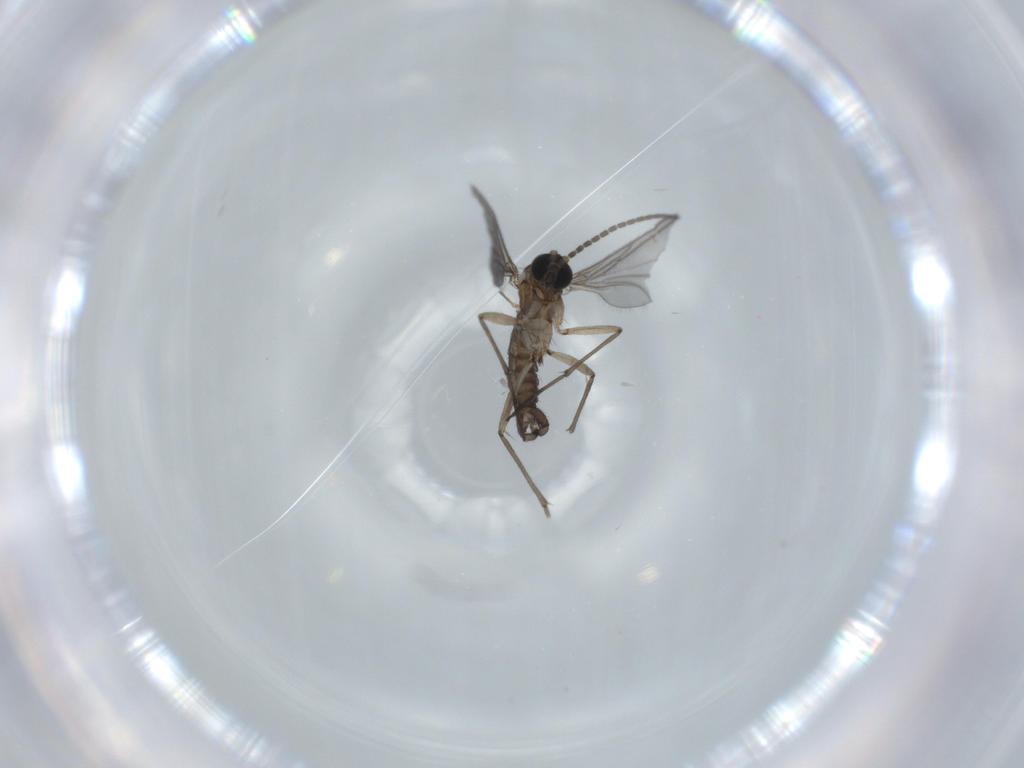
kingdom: Animalia
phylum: Arthropoda
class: Insecta
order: Diptera
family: Sciaridae
